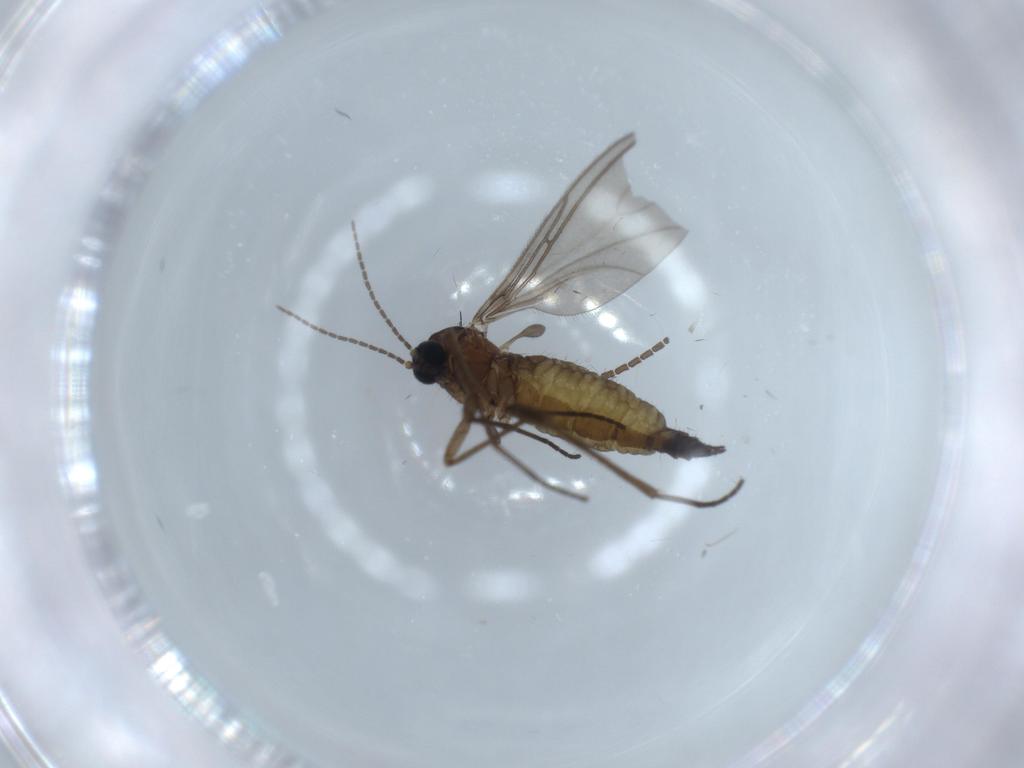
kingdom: Animalia
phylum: Arthropoda
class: Insecta
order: Diptera
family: Sciaridae
